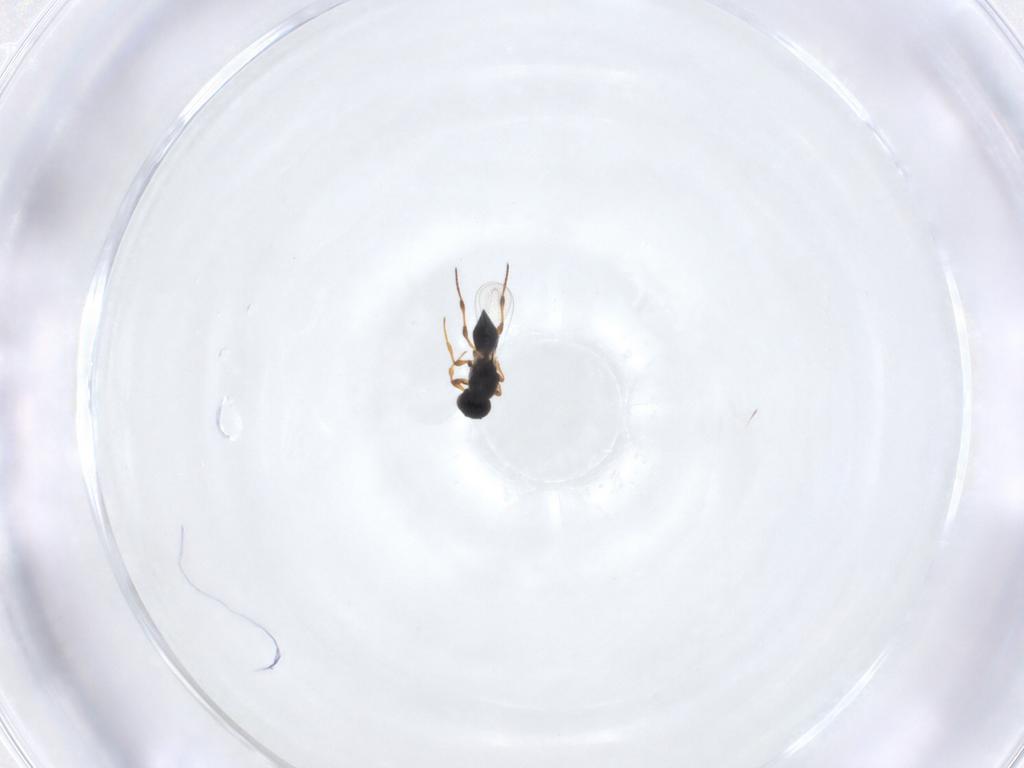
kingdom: Animalia
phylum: Arthropoda
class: Insecta
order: Hymenoptera
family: Platygastridae
